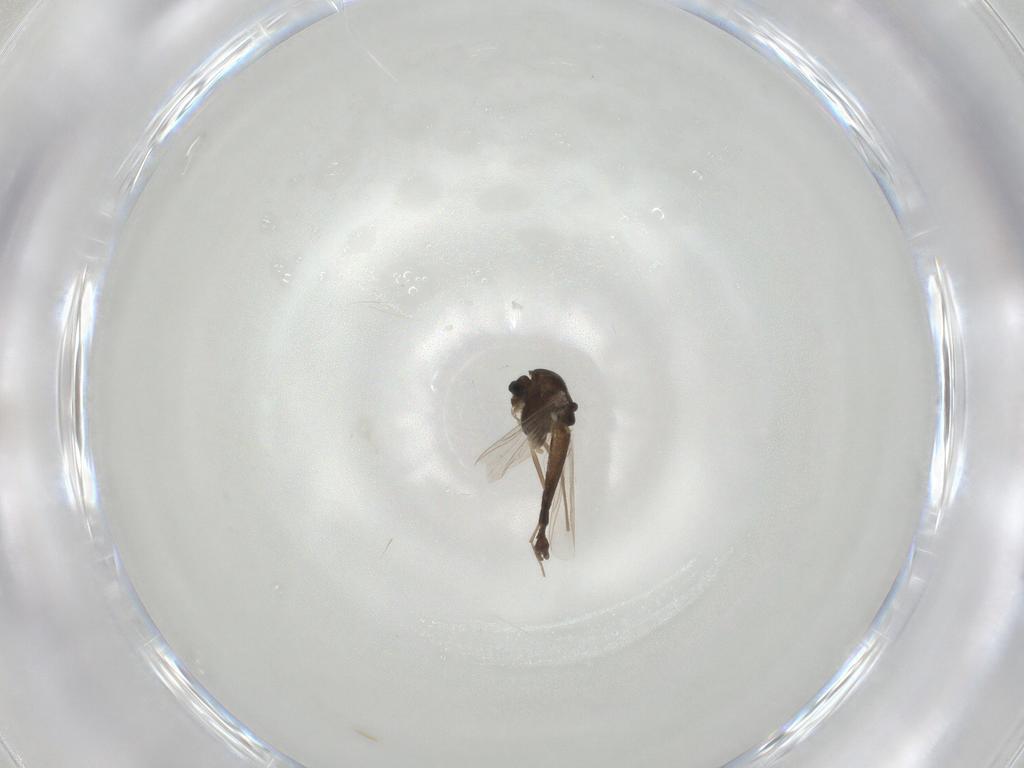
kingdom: Animalia
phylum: Arthropoda
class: Insecta
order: Diptera
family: Chironomidae
